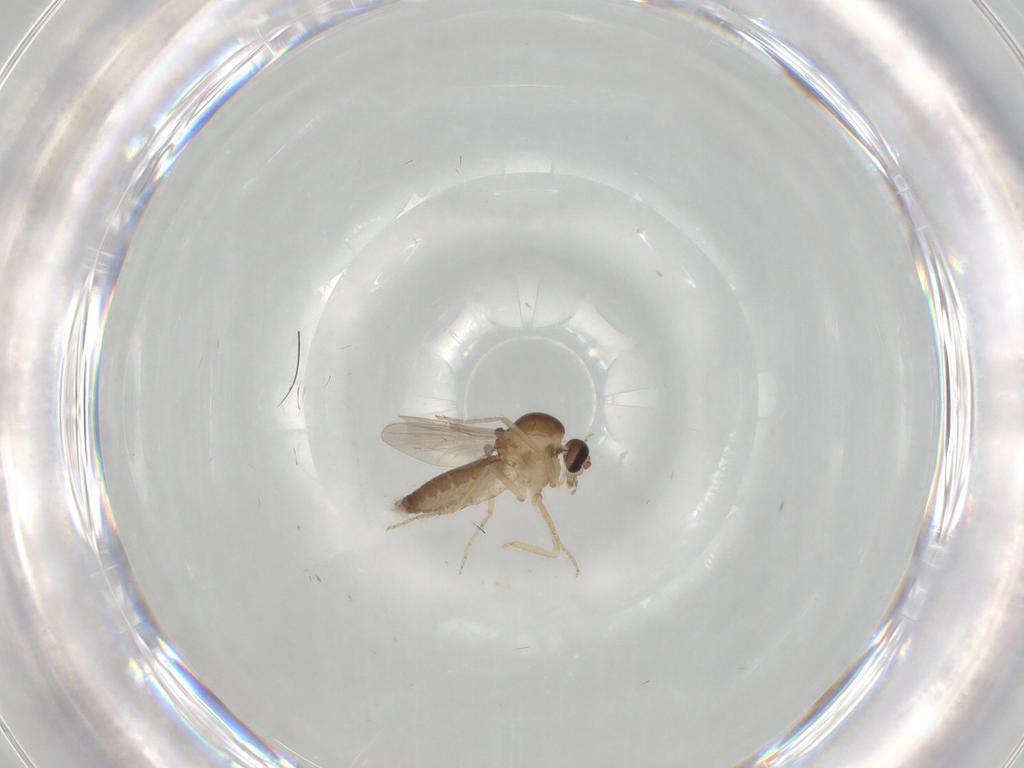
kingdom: Animalia
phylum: Arthropoda
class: Insecta
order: Diptera
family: Ceratopogonidae
